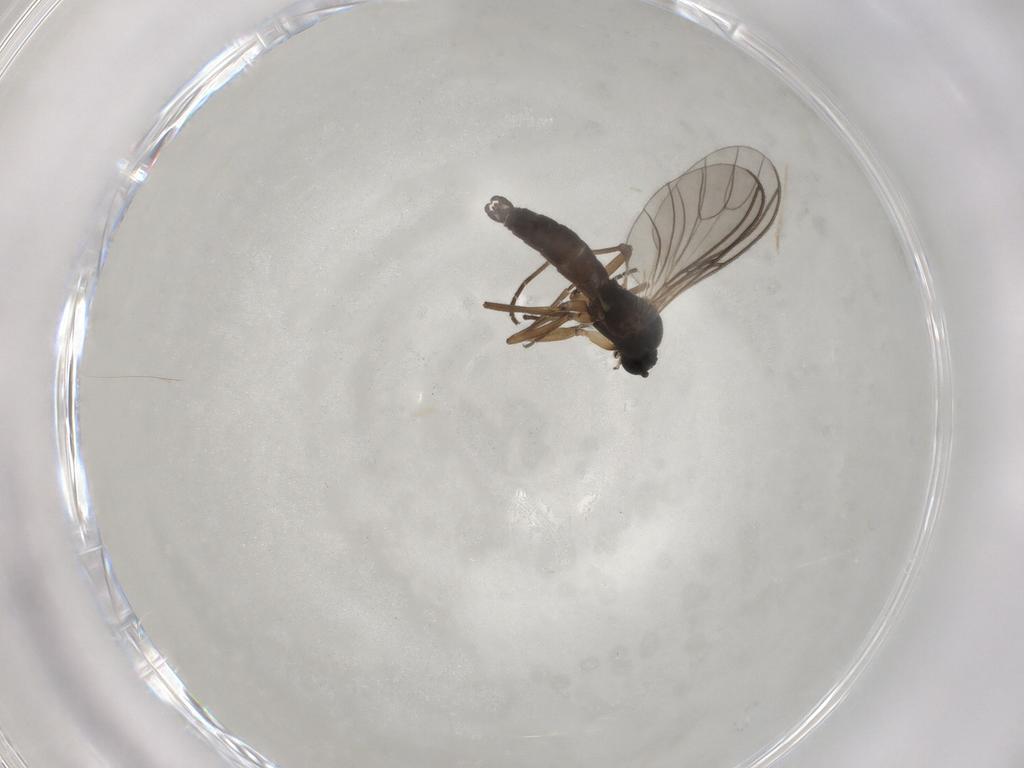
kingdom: Animalia
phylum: Arthropoda
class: Insecta
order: Diptera
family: Sciaridae
